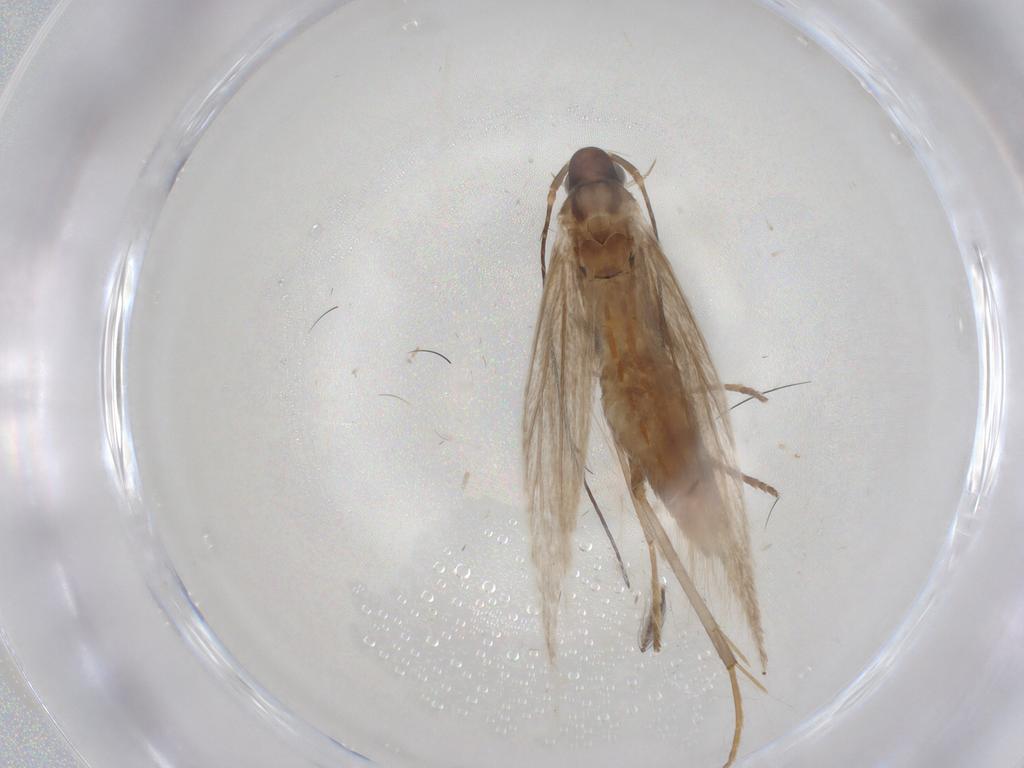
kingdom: Animalia
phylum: Arthropoda
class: Insecta
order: Lepidoptera
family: Coleophoridae
